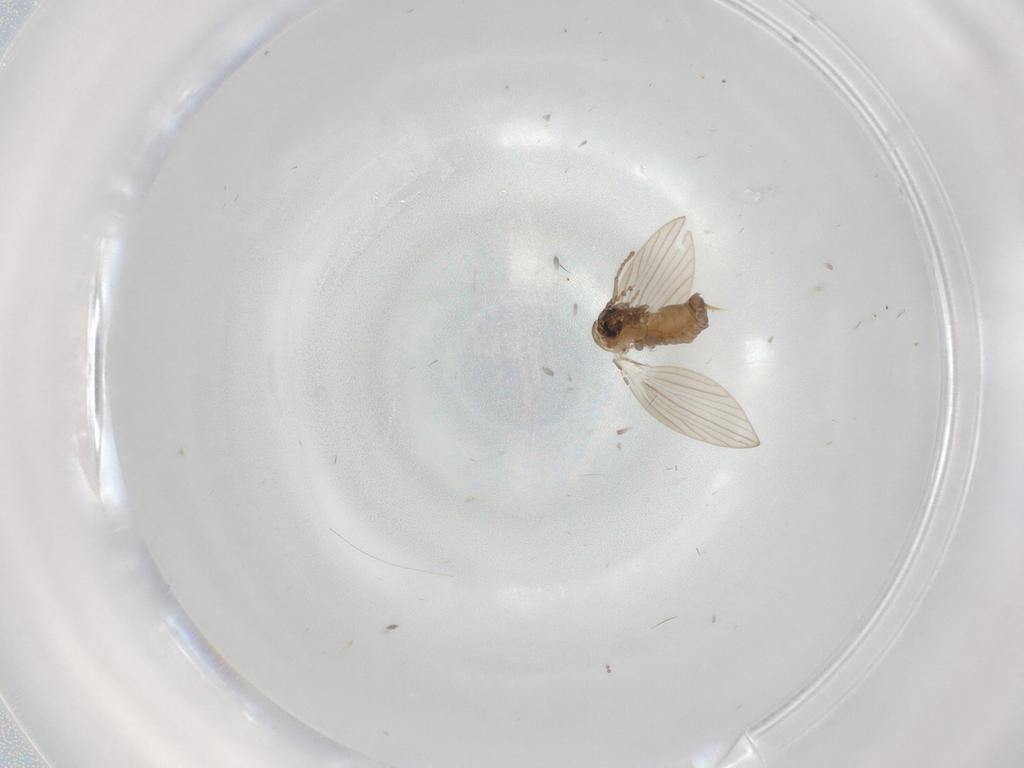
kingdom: Animalia
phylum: Arthropoda
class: Insecta
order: Diptera
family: Psychodidae
